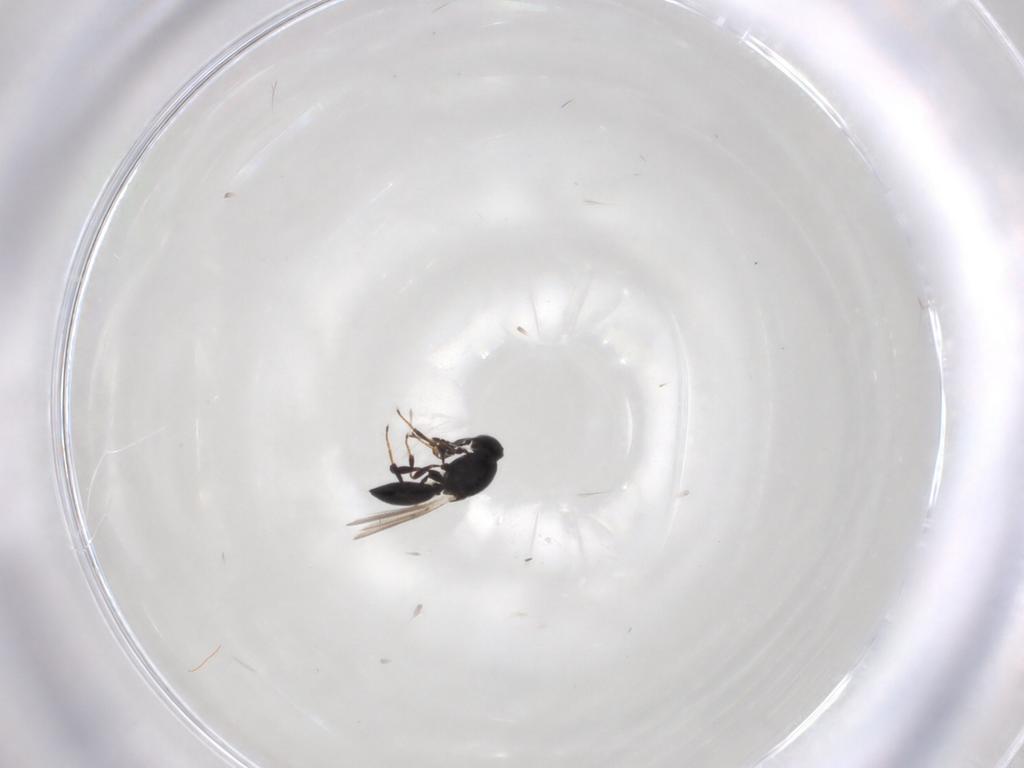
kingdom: Animalia
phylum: Arthropoda
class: Insecta
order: Hymenoptera
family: Platygastridae
